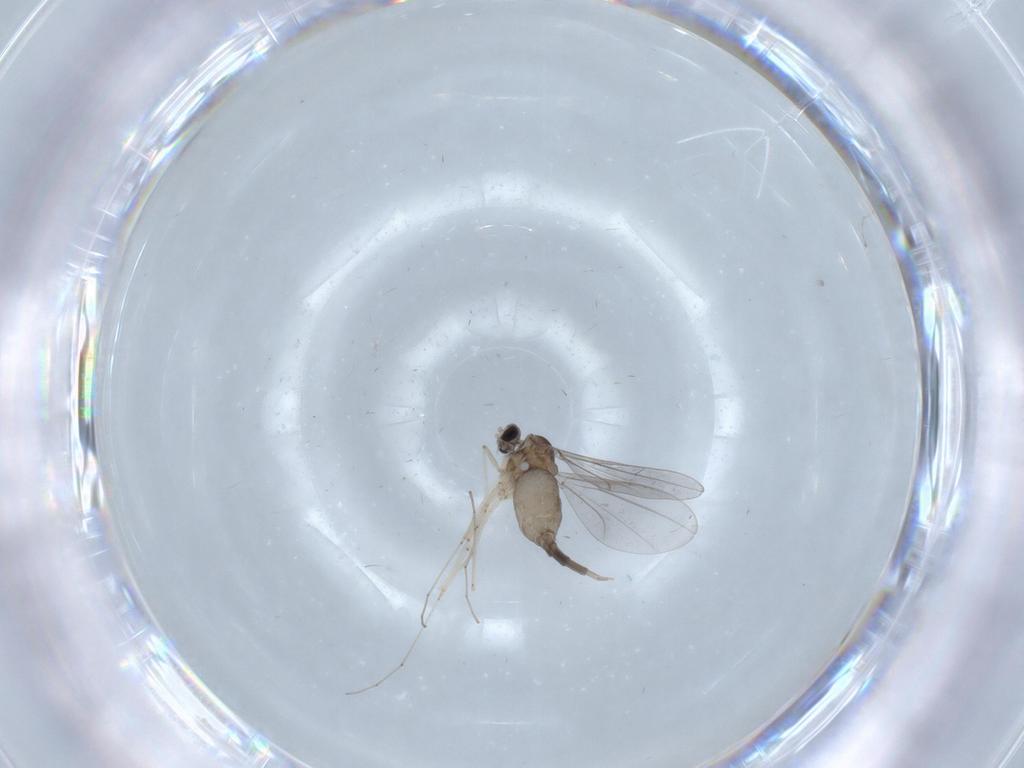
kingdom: Animalia
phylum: Arthropoda
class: Insecta
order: Diptera
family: Cecidomyiidae
